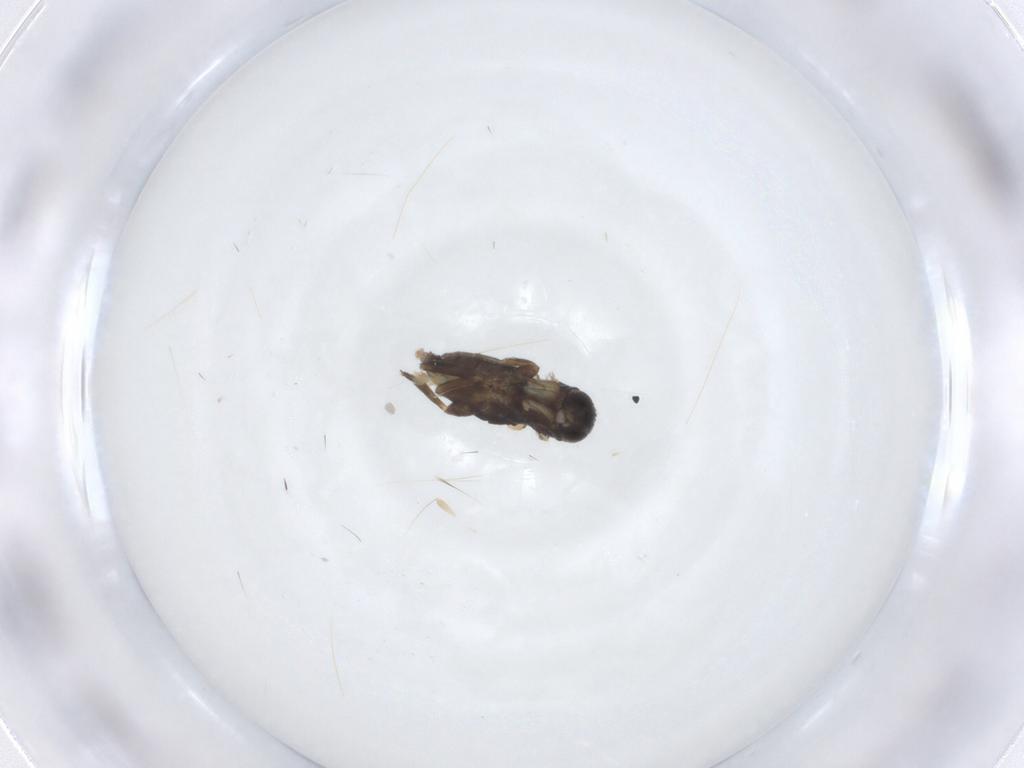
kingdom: Animalia
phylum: Arthropoda
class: Insecta
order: Diptera
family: Phoridae
